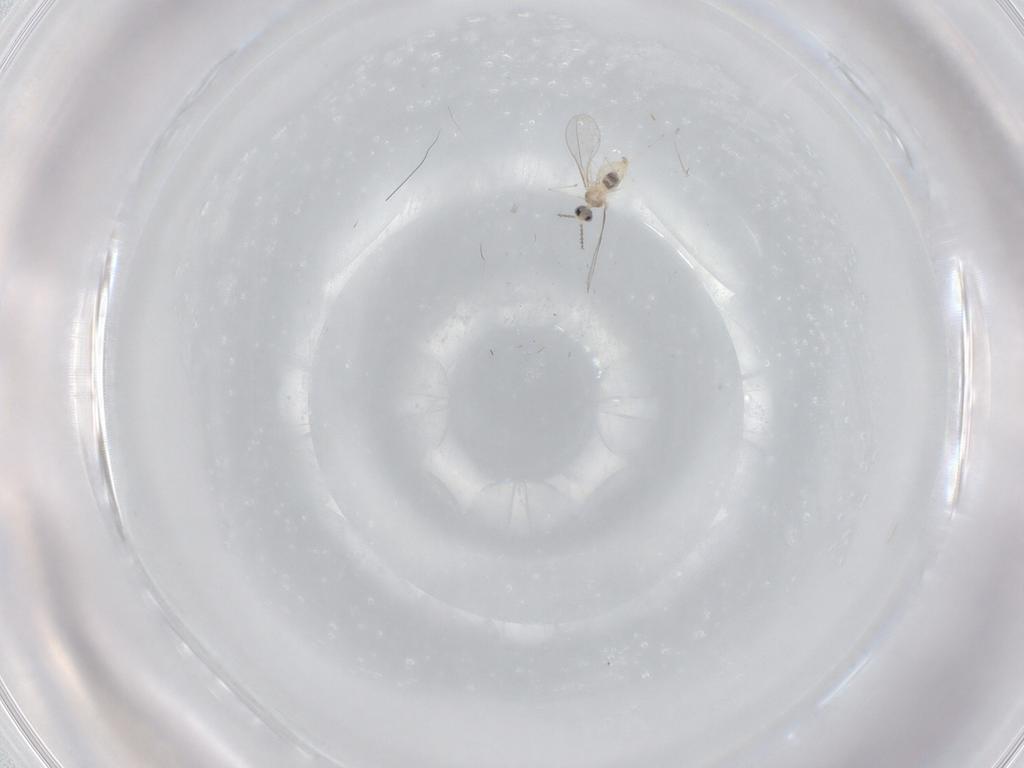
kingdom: Animalia
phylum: Arthropoda
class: Insecta
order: Diptera
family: Cecidomyiidae
